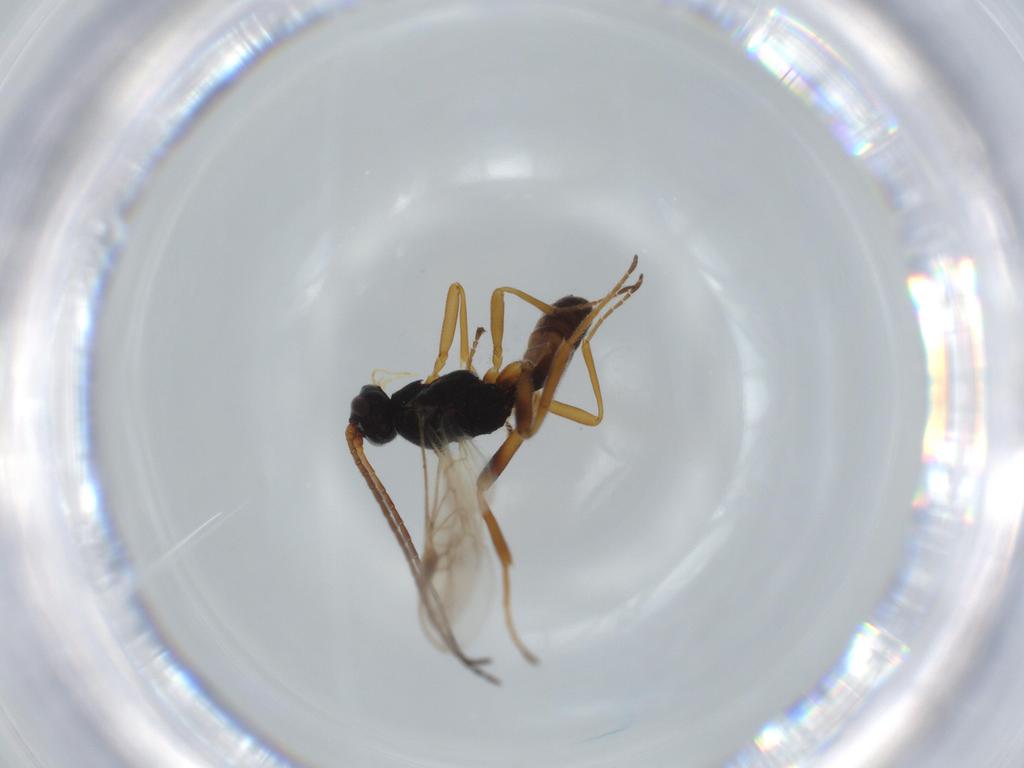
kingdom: Animalia
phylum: Arthropoda
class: Insecta
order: Hymenoptera
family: Braconidae
